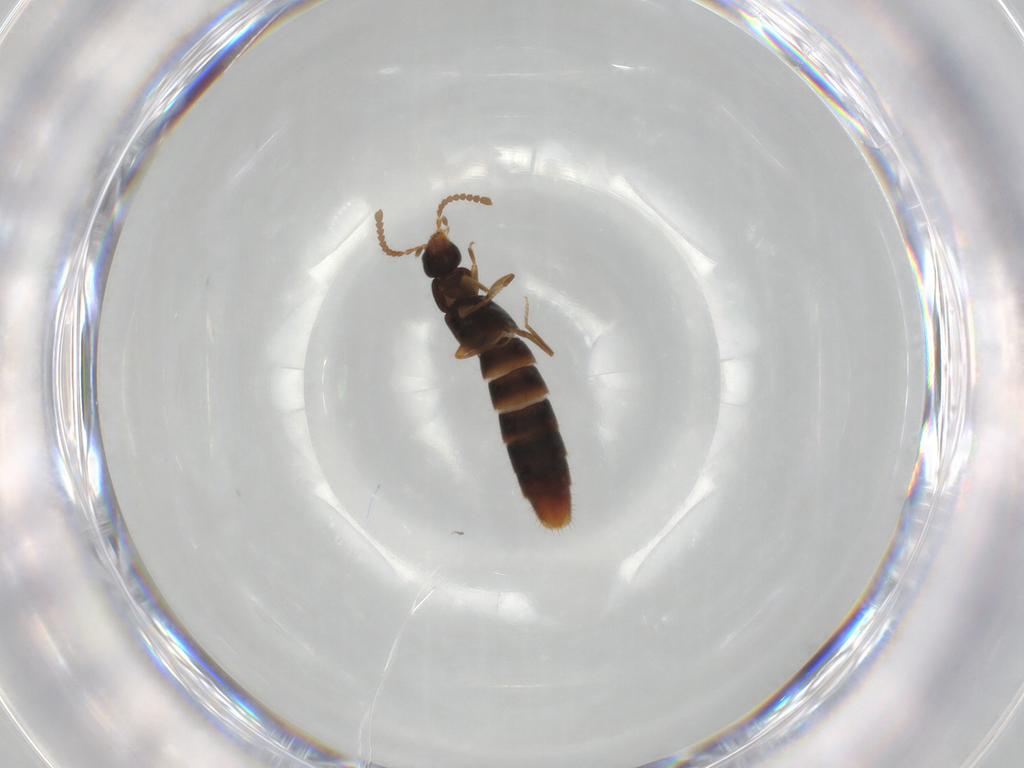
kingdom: Animalia
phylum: Arthropoda
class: Insecta
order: Coleoptera
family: Staphylinidae
